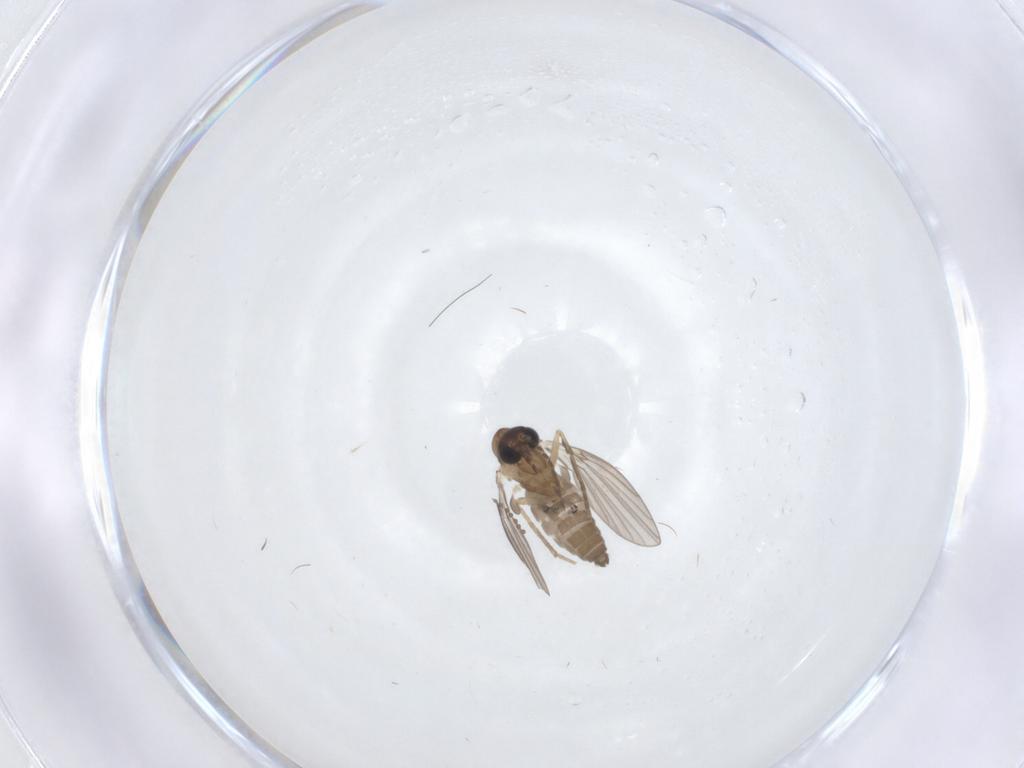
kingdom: Animalia
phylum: Arthropoda
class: Insecta
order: Diptera
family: Cecidomyiidae
